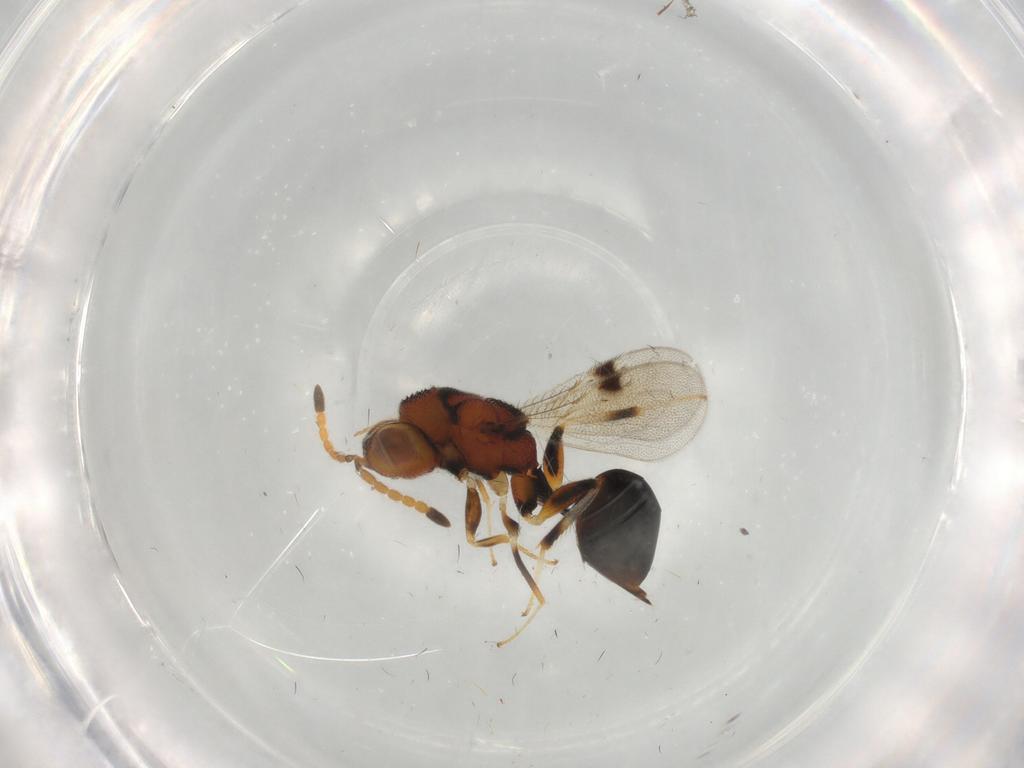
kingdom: Animalia
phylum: Arthropoda
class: Insecta
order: Hymenoptera
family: Eurytomidae
